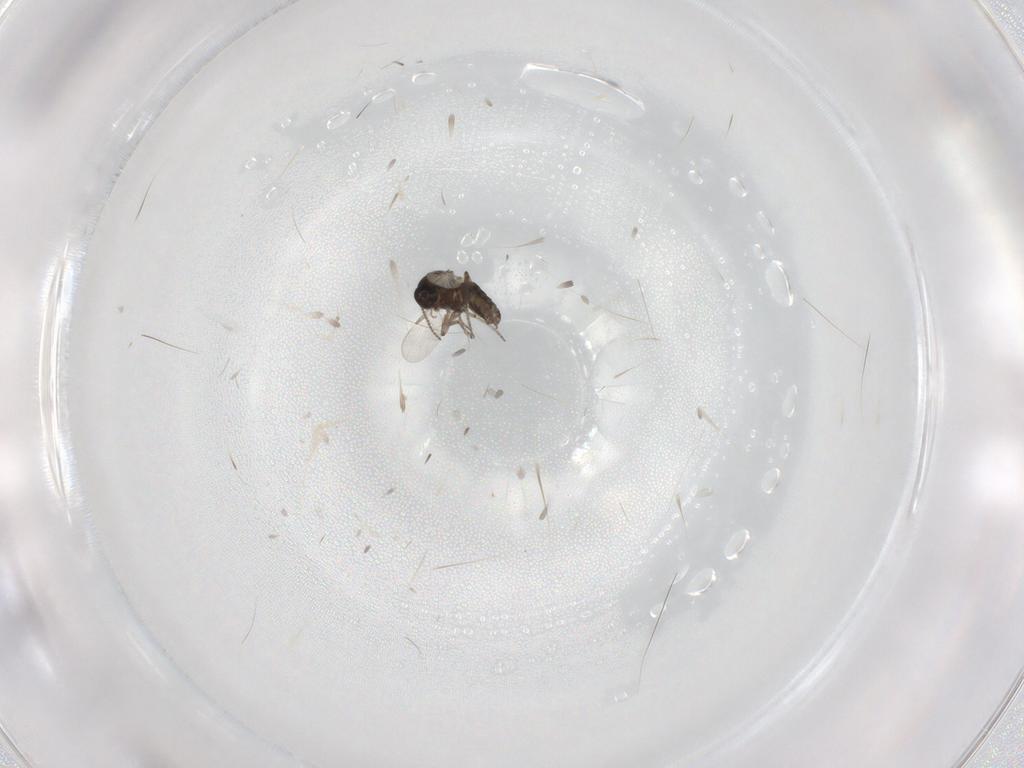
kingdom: Animalia
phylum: Arthropoda
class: Insecta
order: Diptera
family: Ceratopogonidae
